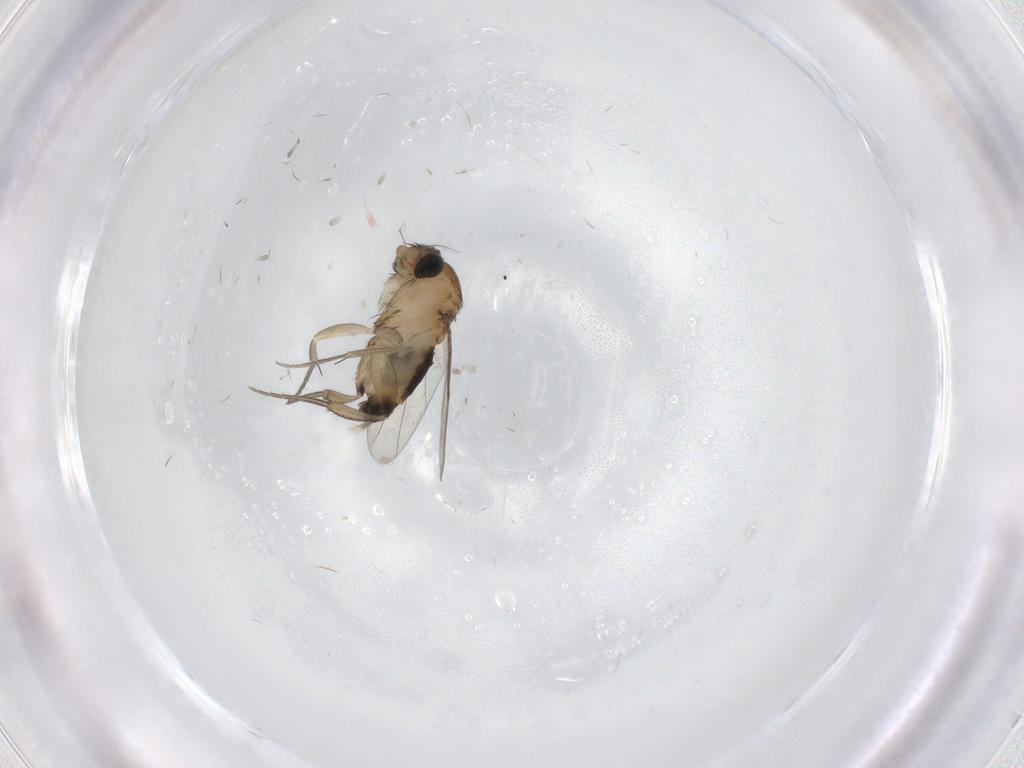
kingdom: Animalia
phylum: Arthropoda
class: Insecta
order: Diptera
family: Phoridae
